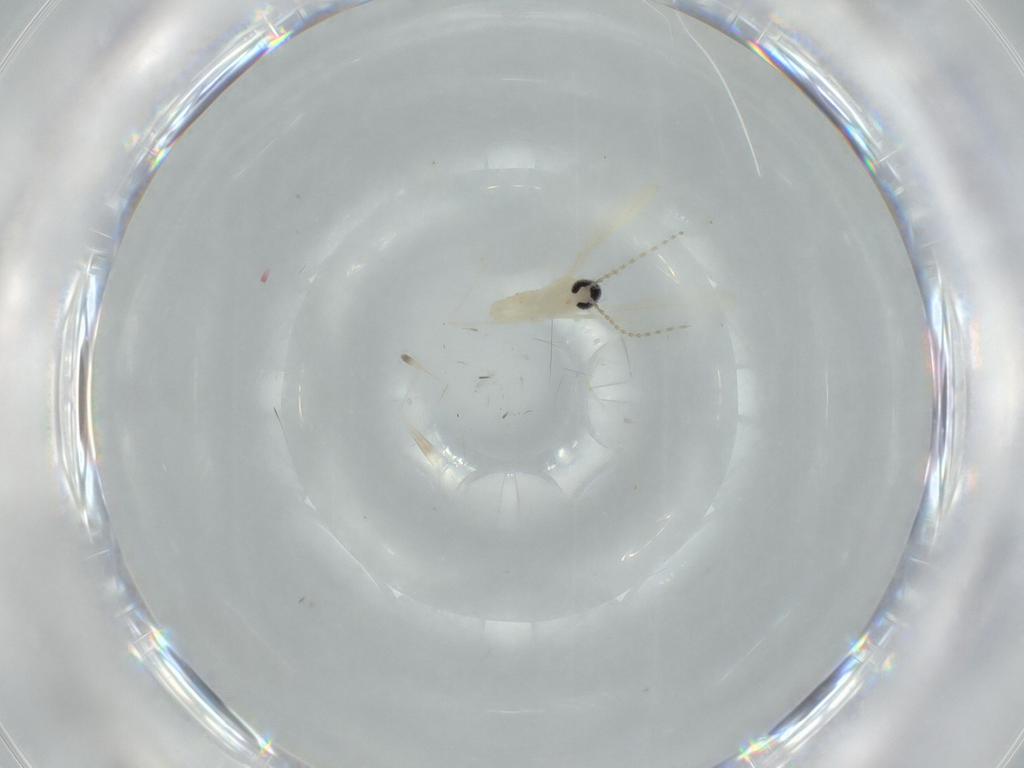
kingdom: Animalia
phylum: Arthropoda
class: Insecta
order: Diptera
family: Cecidomyiidae
